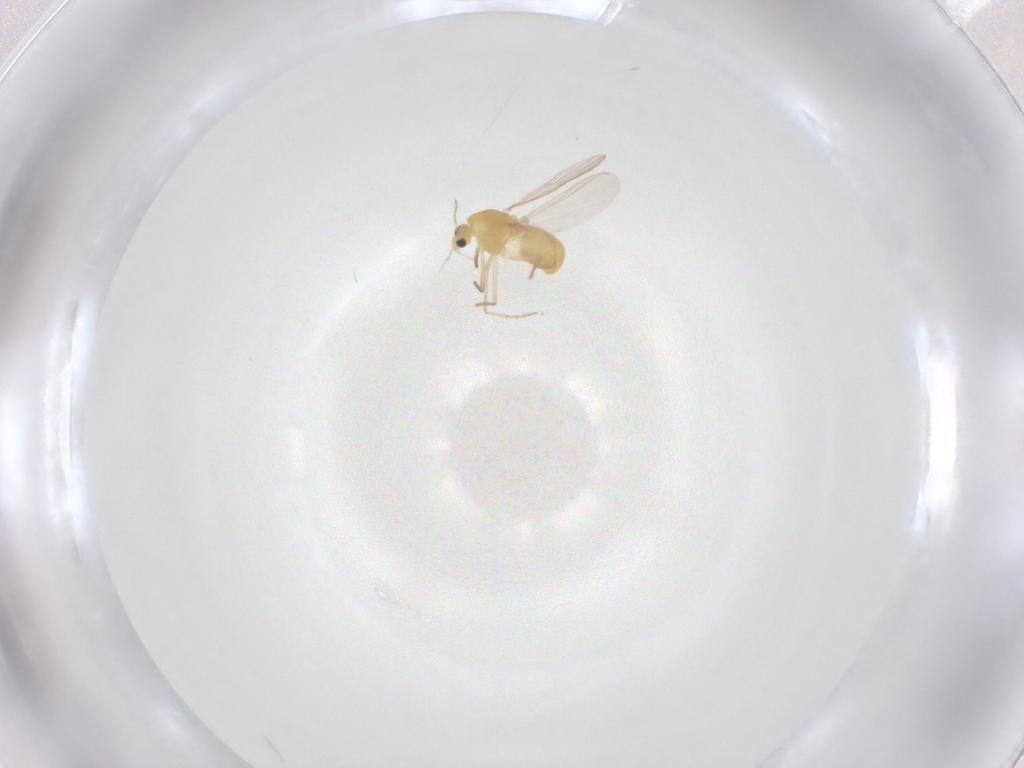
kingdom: Animalia
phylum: Arthropoda
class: Insecta
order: Diptera
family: Chironomidae
